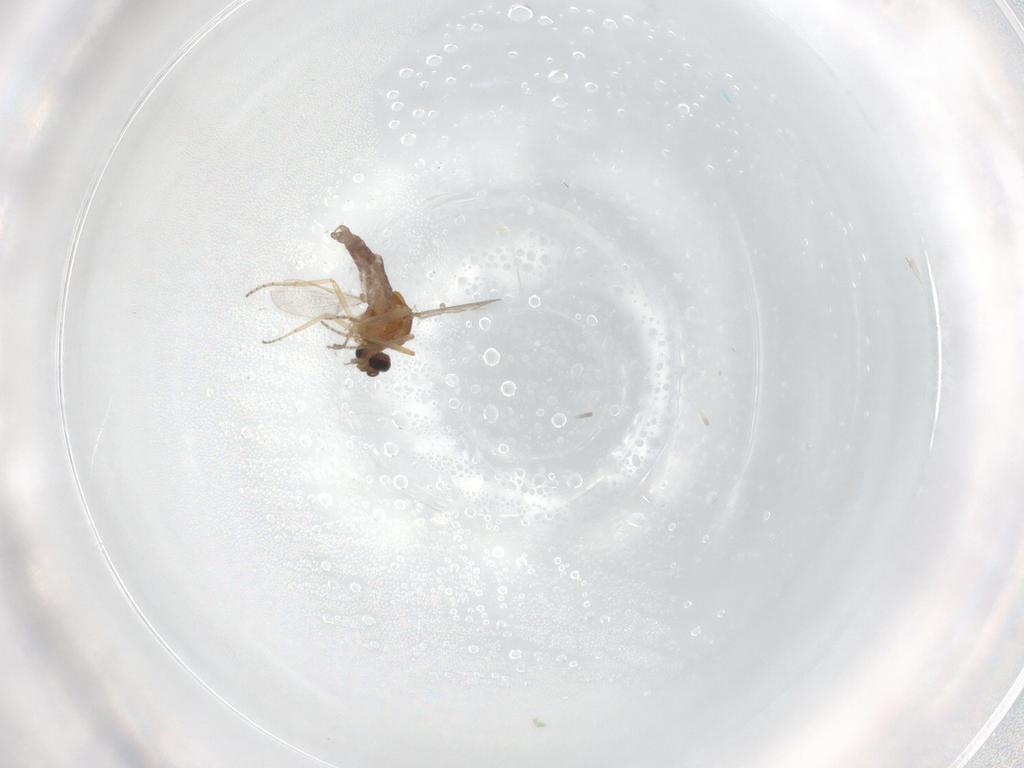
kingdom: Animalia
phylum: Arthropoda
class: Insecta
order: Diptera
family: Ceratopogonidae
